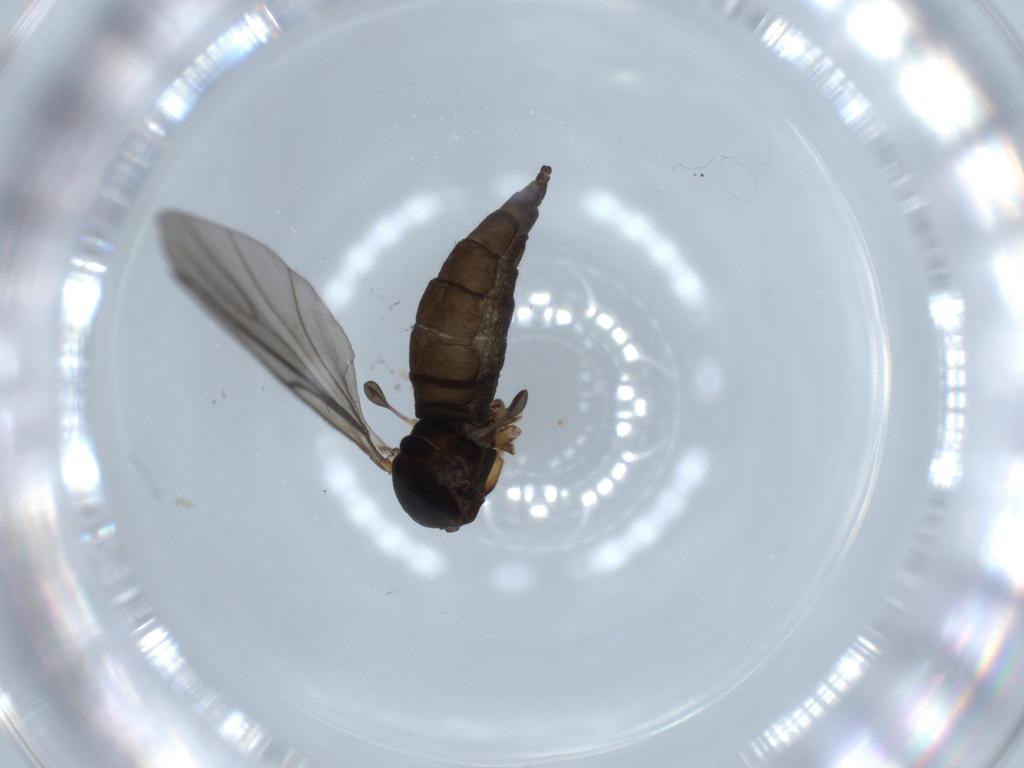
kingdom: Animalia
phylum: Arthropoda
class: Insecta
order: Diptera
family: Sciaridae
